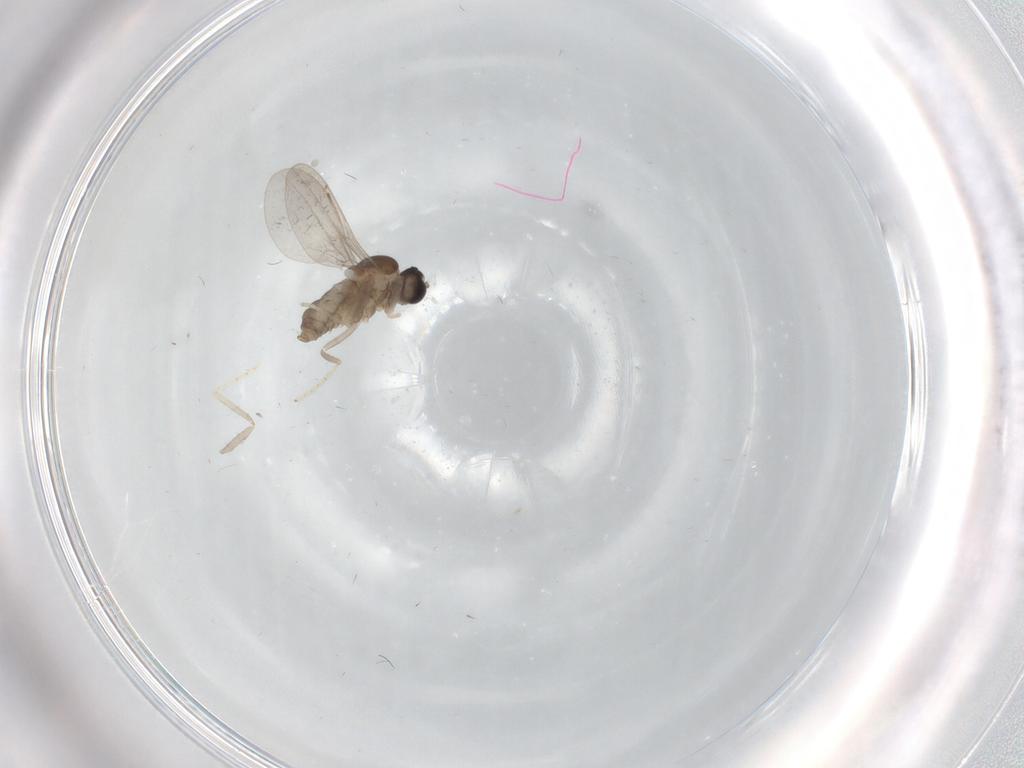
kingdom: Animalia
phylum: Arthropoda
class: Insecta
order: Diptera
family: Cecidomyiidae
